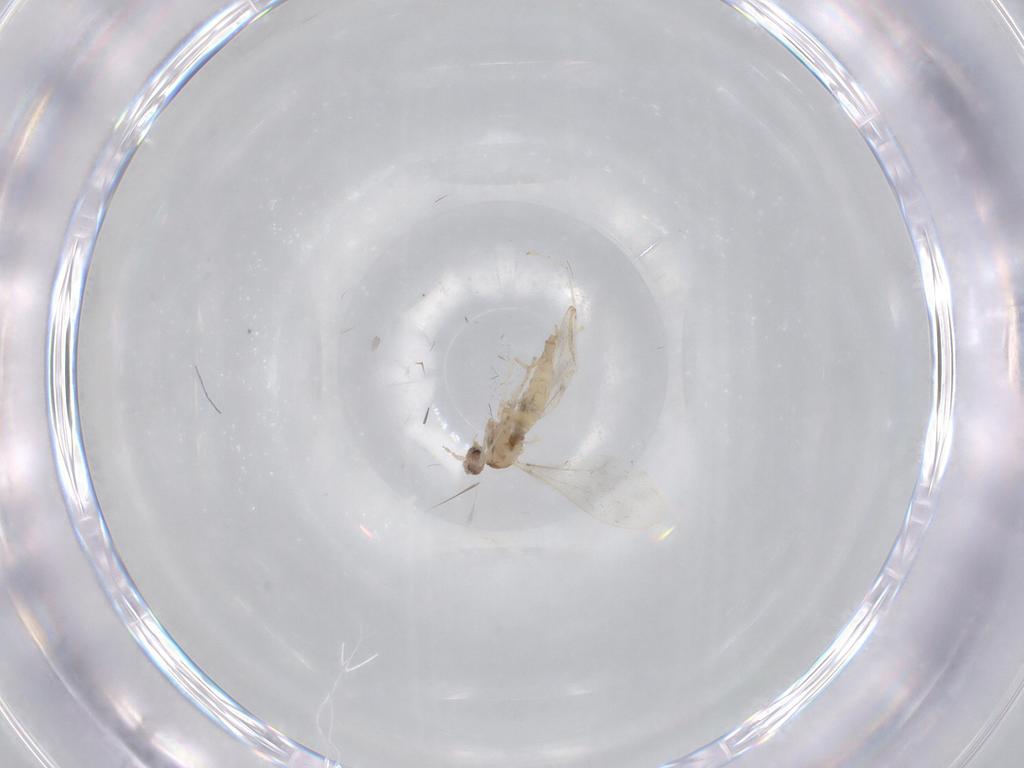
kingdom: Animalia
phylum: Arthropoda
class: Insecta
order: Diptera
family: Cecidomyiidae
